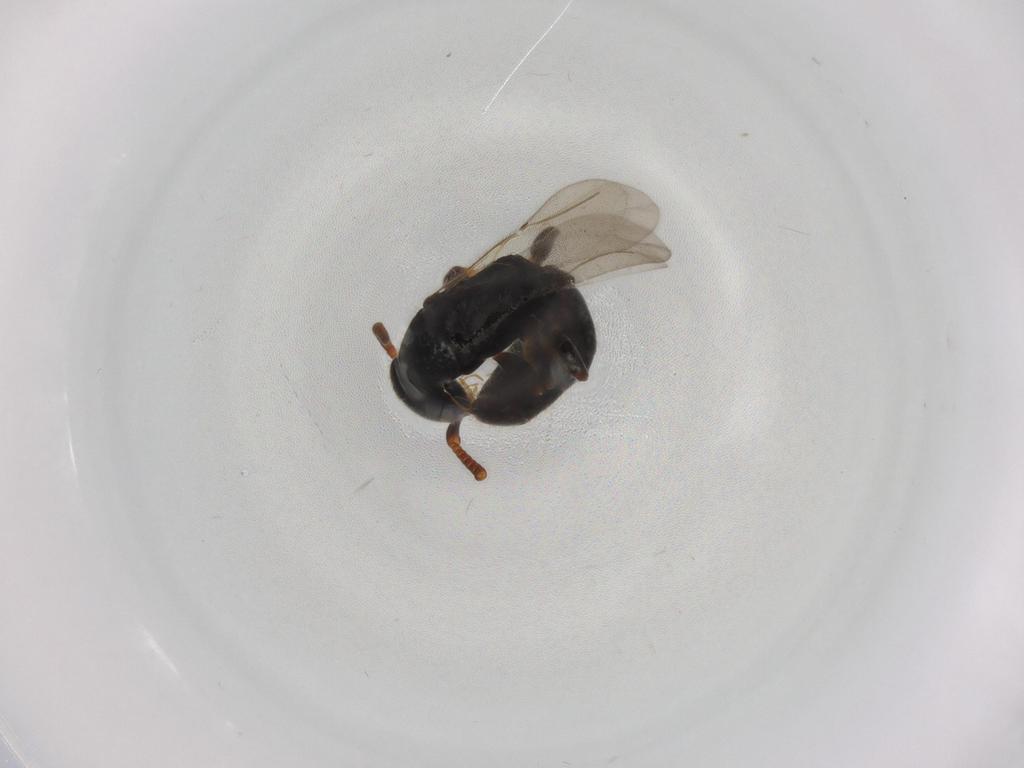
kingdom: Animalia
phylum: Arthropoda
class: Insecta
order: Hymenoptera
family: Bethylidae
